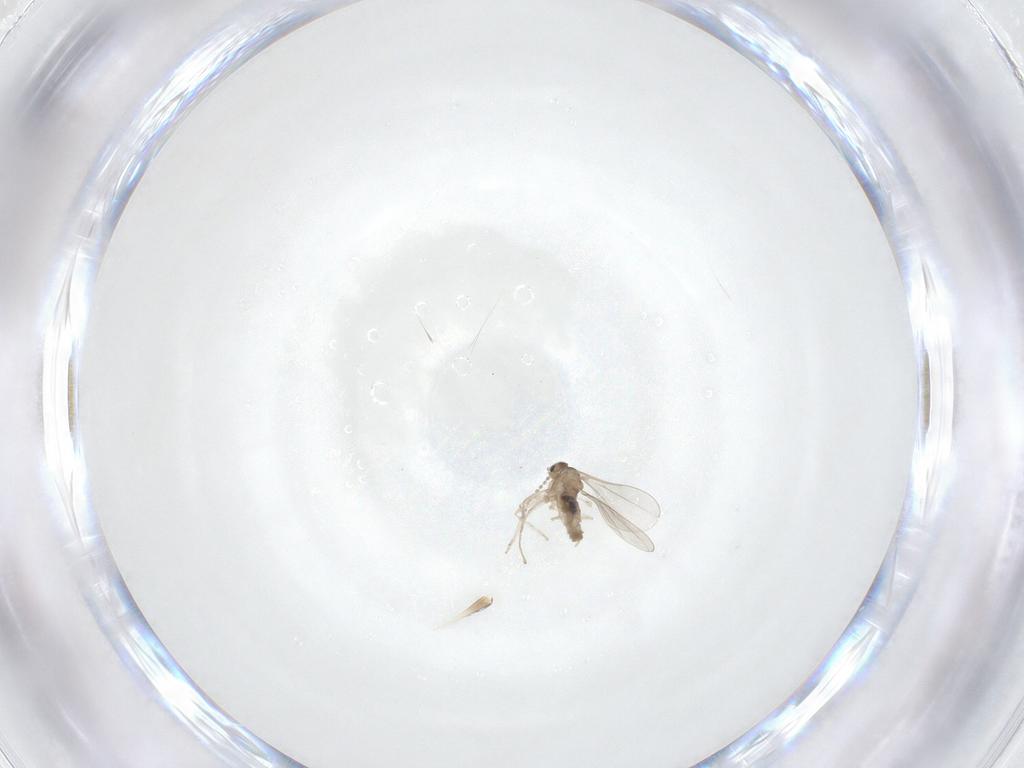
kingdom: Animalia
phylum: Arthropoda
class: Insecta
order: Diptera
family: Cecidomyiidae
